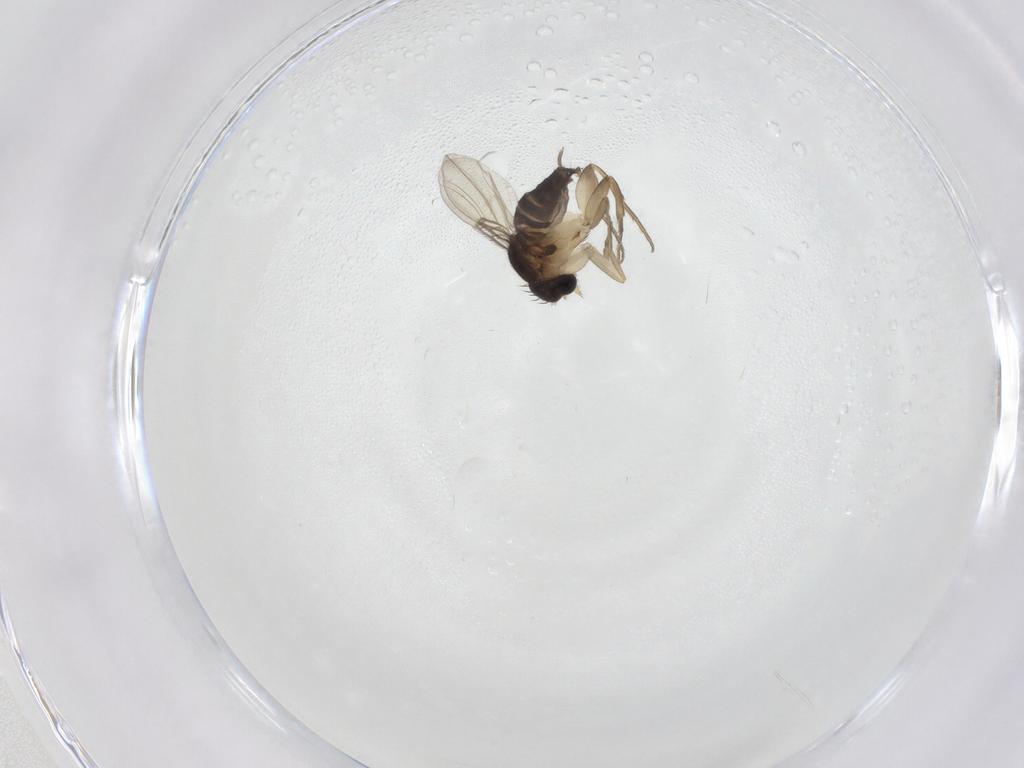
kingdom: Animalia
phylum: Arthropoda
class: Insecta
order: Diptera
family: Phoridae
